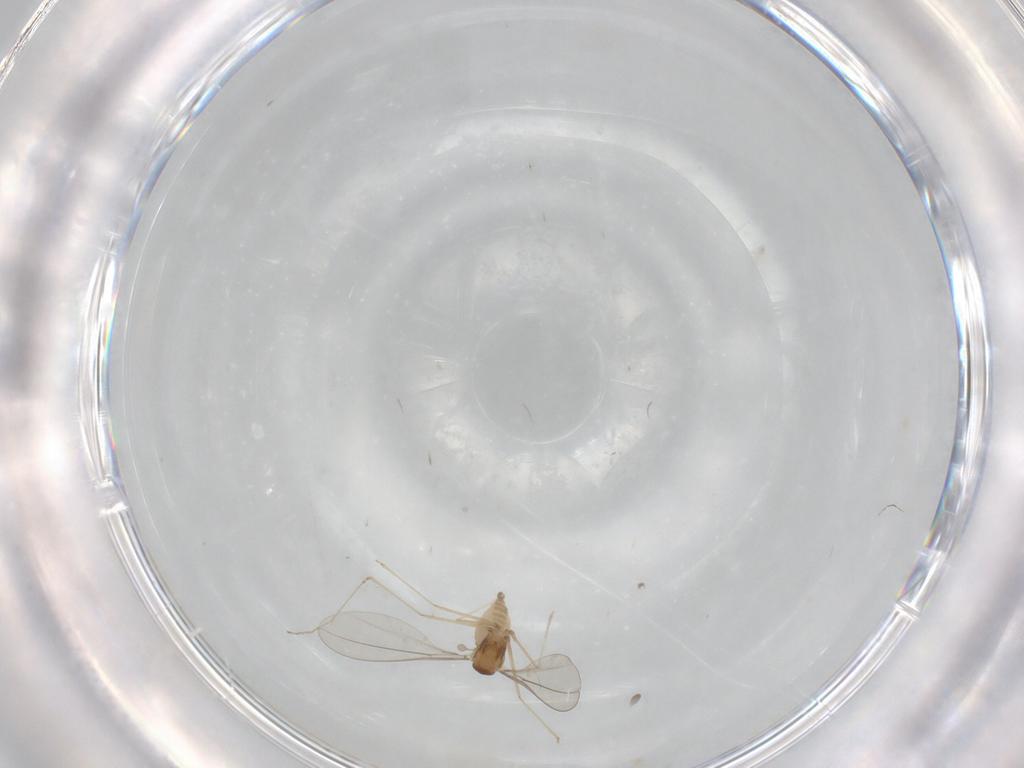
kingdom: Animalia
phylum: Arthropoda
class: Insecta
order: Diptera
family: Cecidomyiidae
